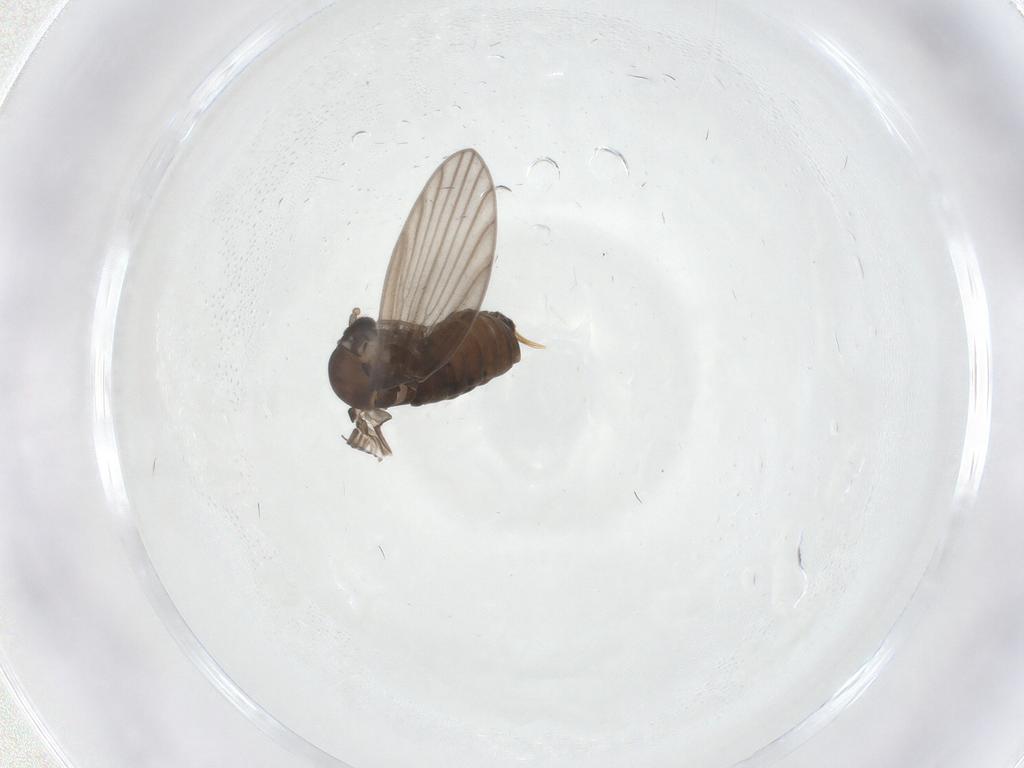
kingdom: Animalia
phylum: Arthropoda
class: Insecta
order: Diptera
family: Psychodidae
